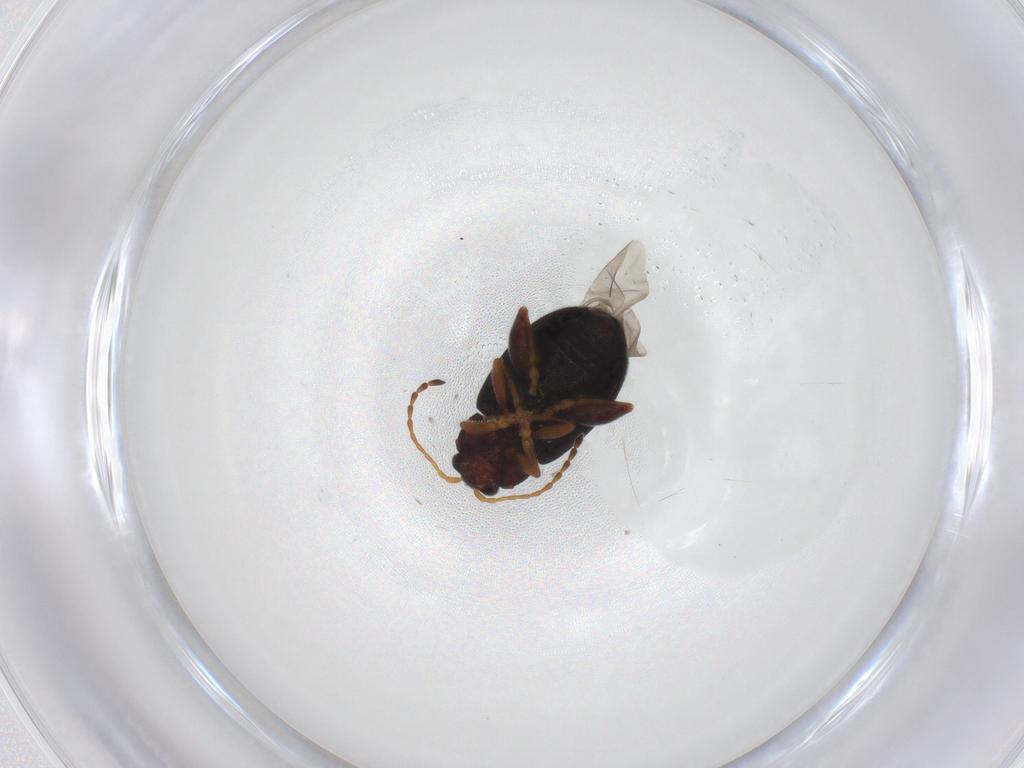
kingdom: Animalia
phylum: Arthropoda
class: Insecta
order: Coleoptera
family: Chrysomelidae
